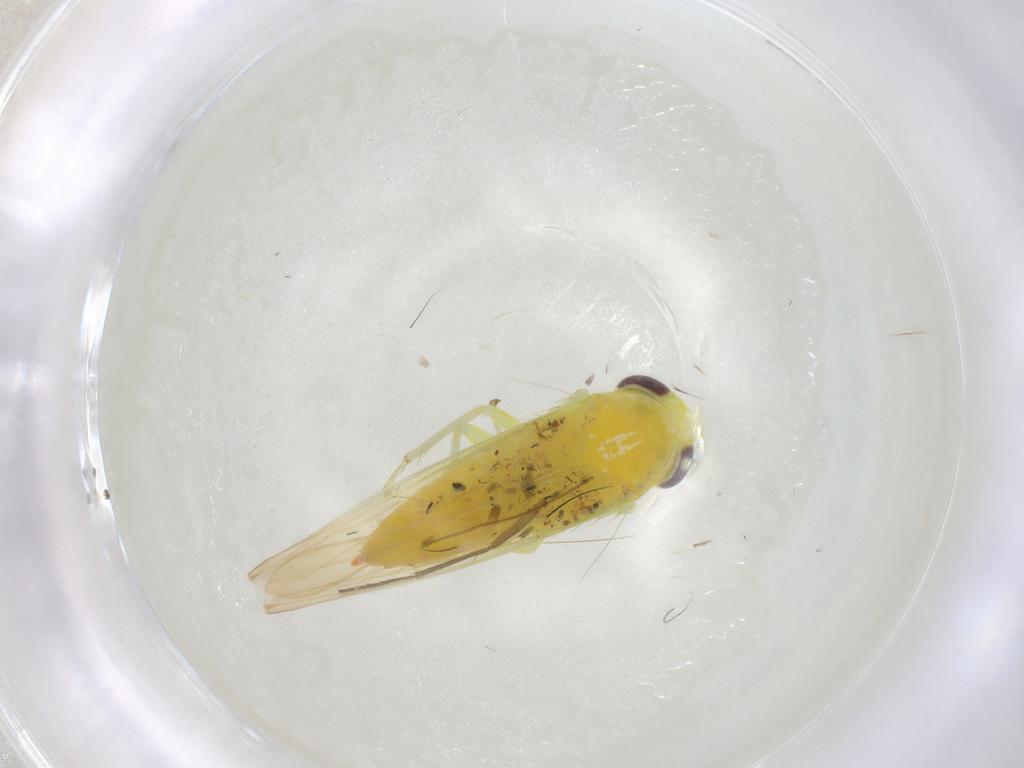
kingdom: Animalia
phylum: Arthropoda
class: Insecta
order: Hemiptera
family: Cicadellidae
